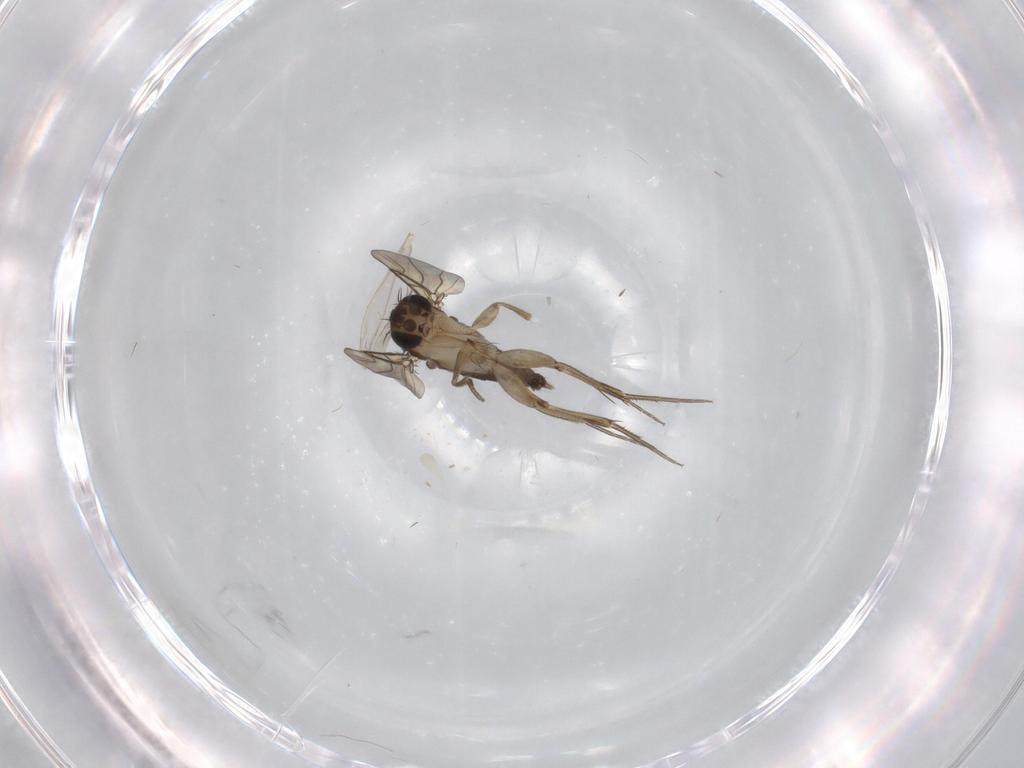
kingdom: Animalia
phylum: Arthropoda
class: Insecta
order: Diptera
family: Phoridae
